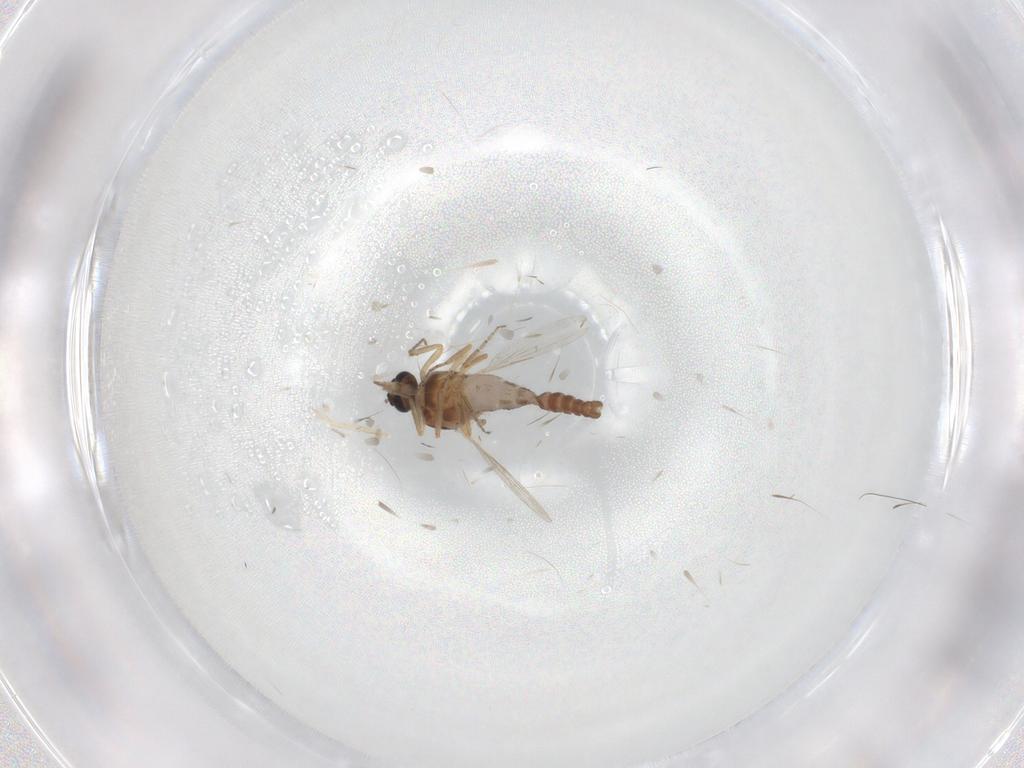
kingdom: Animalia
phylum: Arthropoda
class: Insecta
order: Diptera
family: Ceratopogonidae
